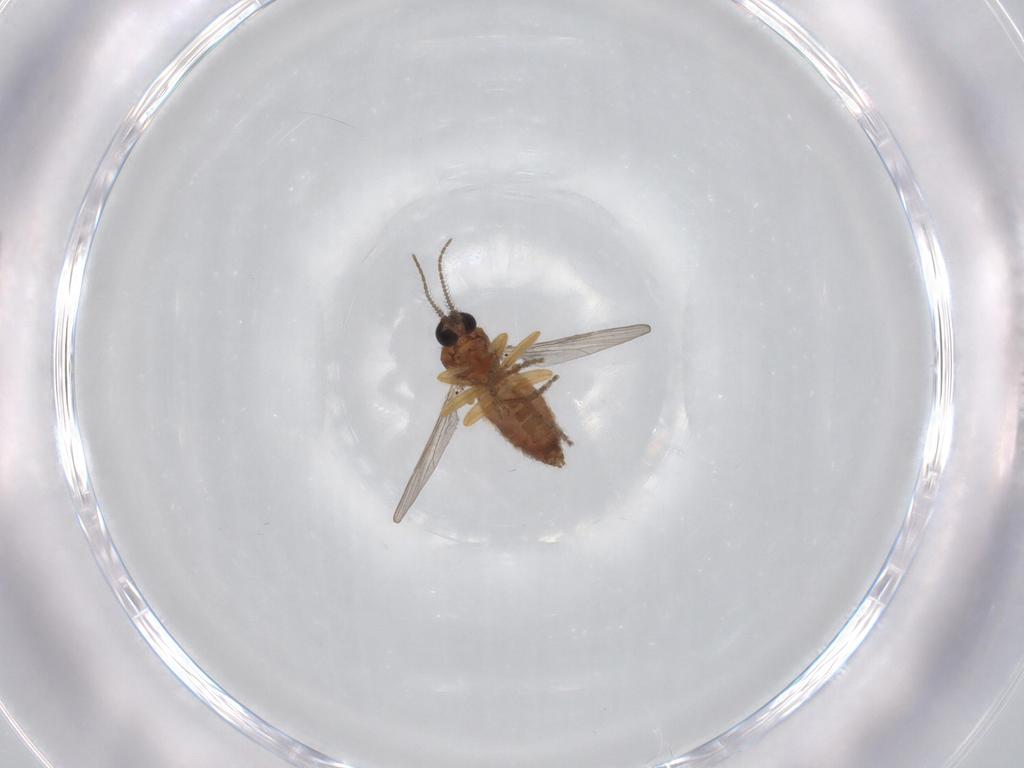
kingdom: Animalia
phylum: Arthropoda
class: Insecta
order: Diptera
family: Ceratopogonidae
